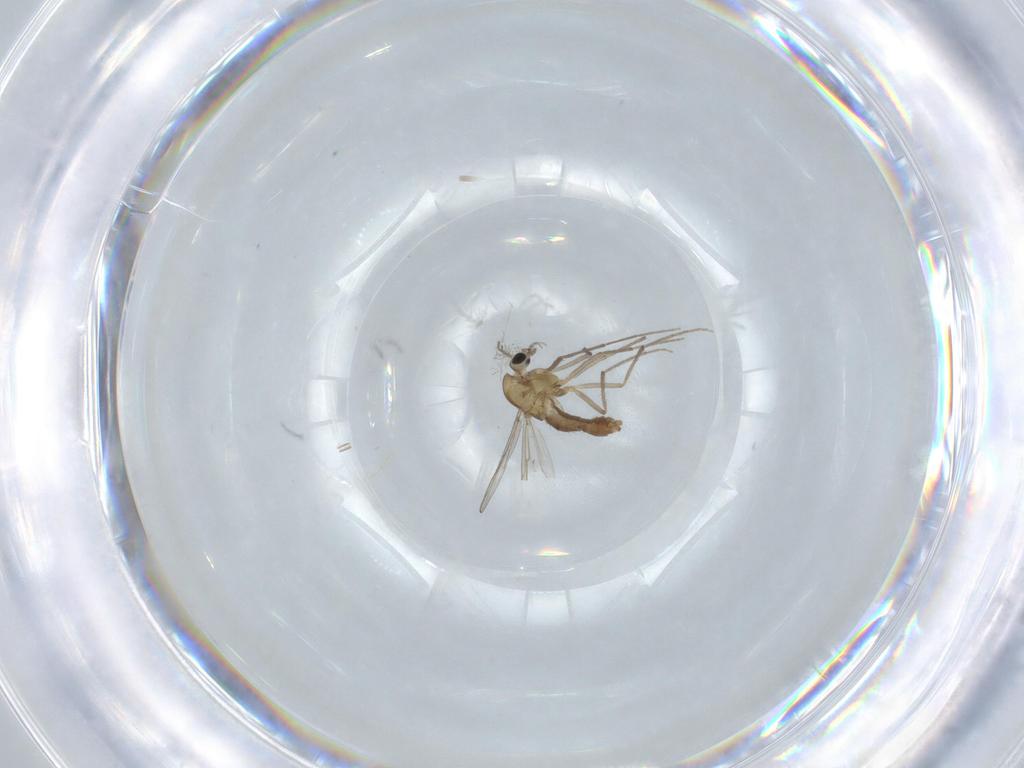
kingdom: Animalia
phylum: Arthropoda
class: Insecta
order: Diptera
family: Chironomidae
